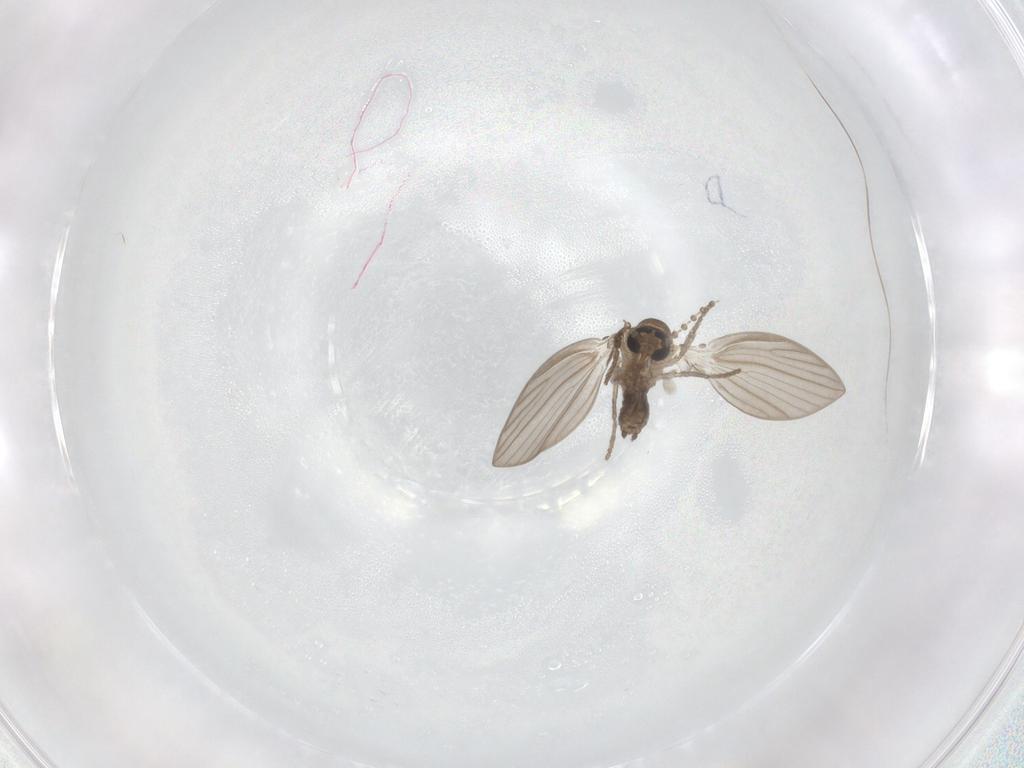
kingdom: Animalia
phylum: Arthropoda
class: Insecta
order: Diptera
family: Psychodidae
